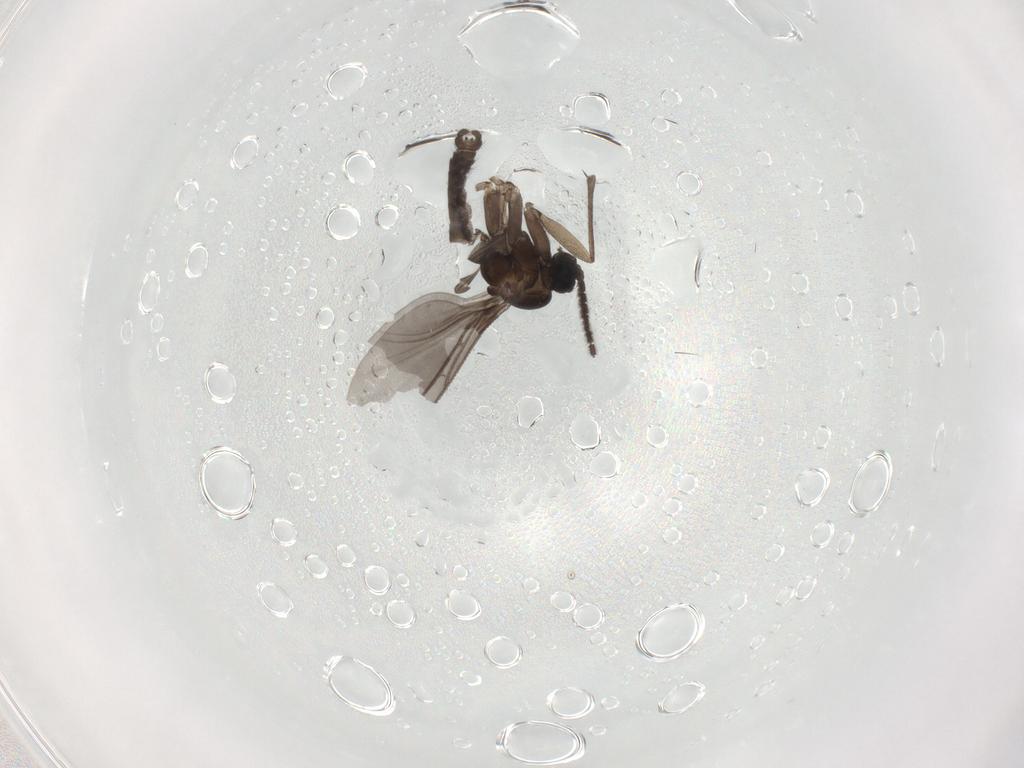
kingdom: Animalia
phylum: Arthropoda
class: Insecta
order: Diptera
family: Sciaridae
